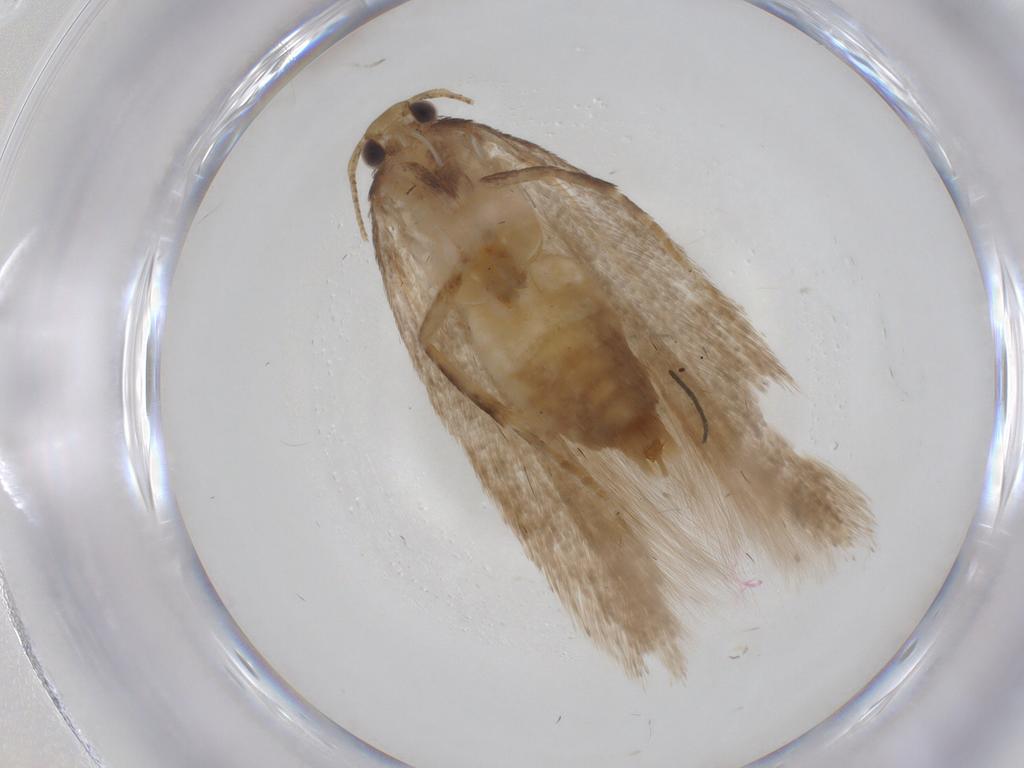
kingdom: Animalia
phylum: Arthropoda
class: Insecta
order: Lepidoptera
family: Gelechiidae
